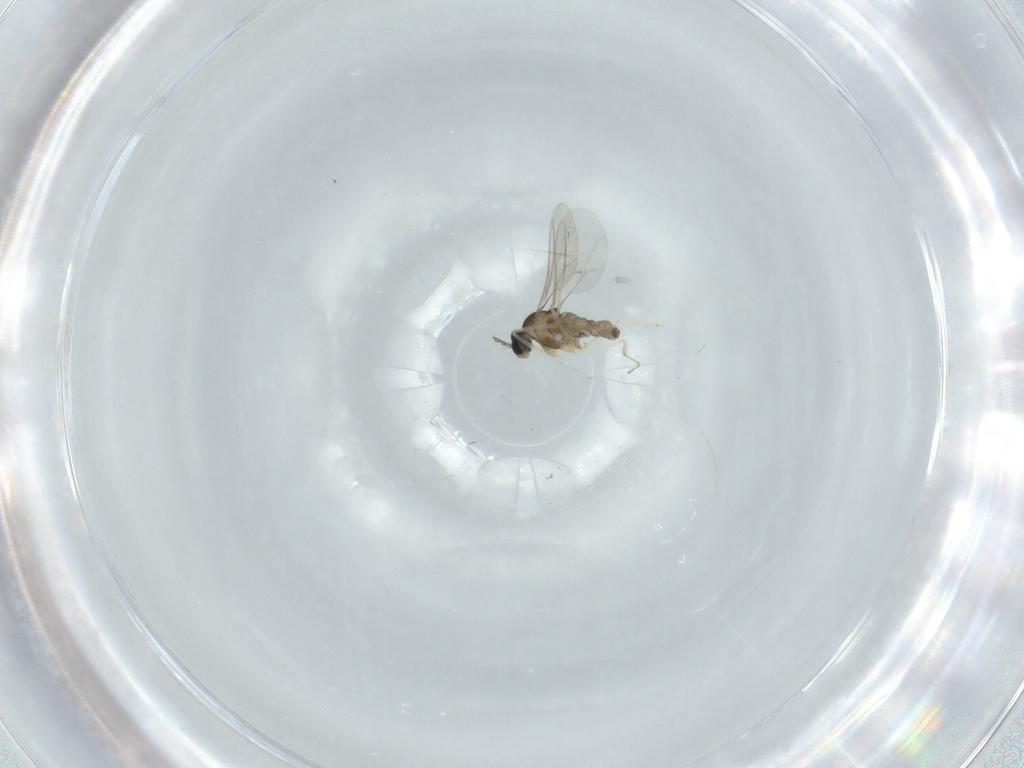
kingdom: Animalia
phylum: Arthropoda
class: Insecta
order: Diptera
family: Cecidomyiidae
